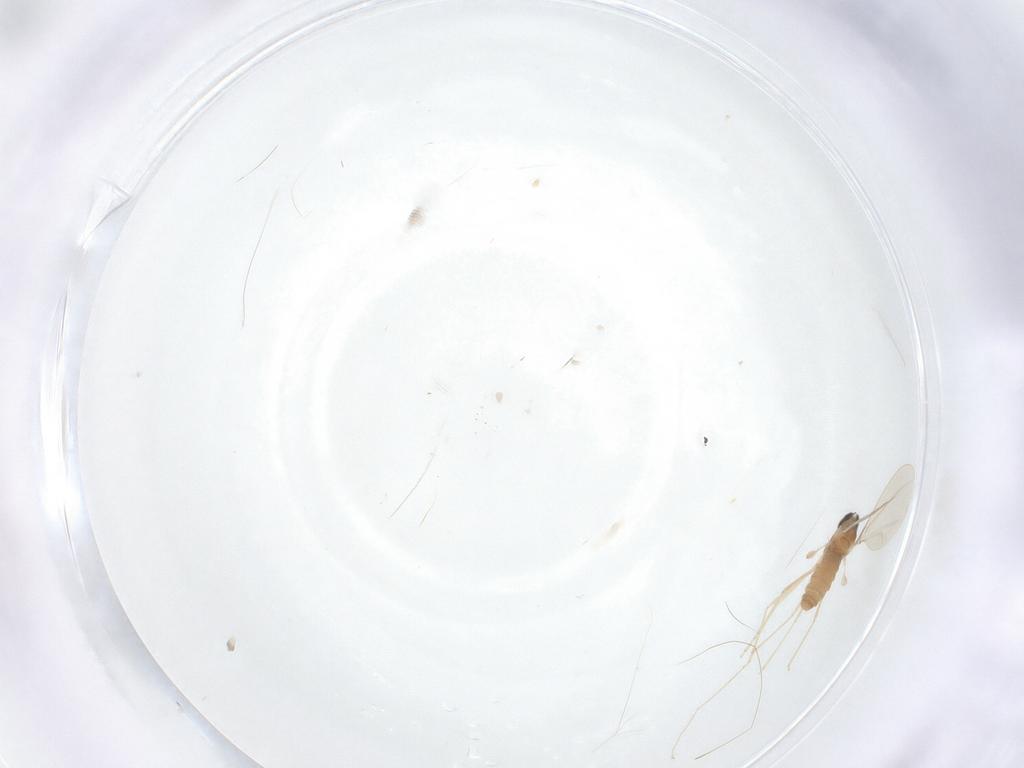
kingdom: Animalia
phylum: Arthropoda
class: Insecta
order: Diptera
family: Cecidomyiidae
